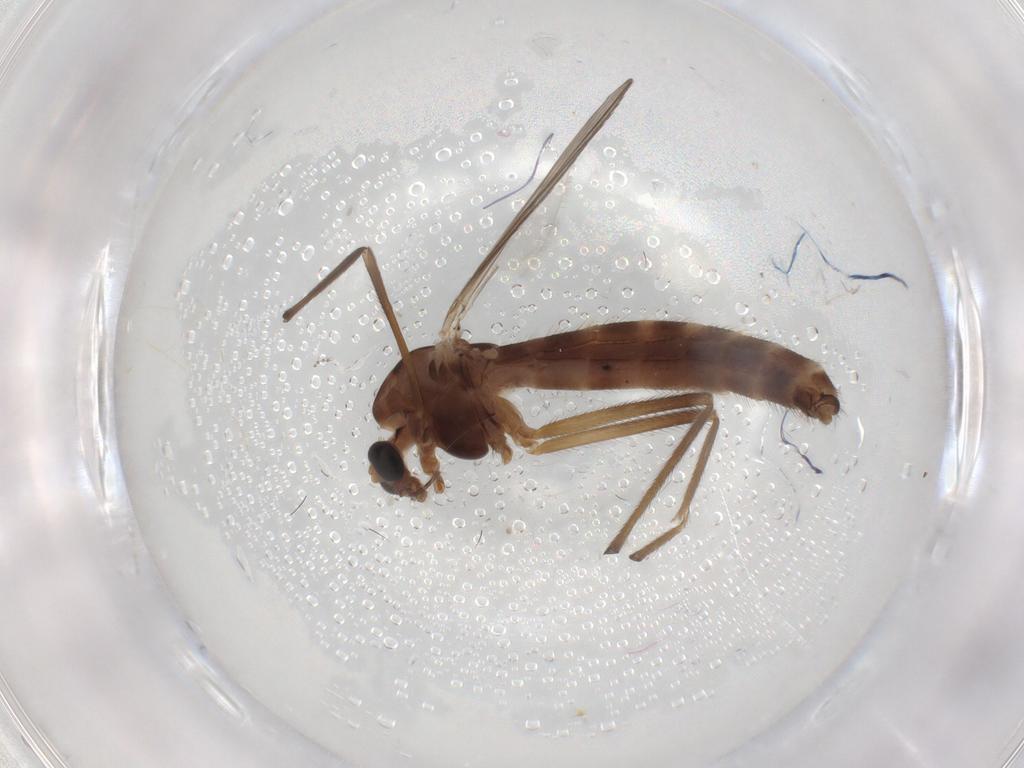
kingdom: Animalia
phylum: Arthropoda
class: Insecta
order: Diptera
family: Chironomidae
